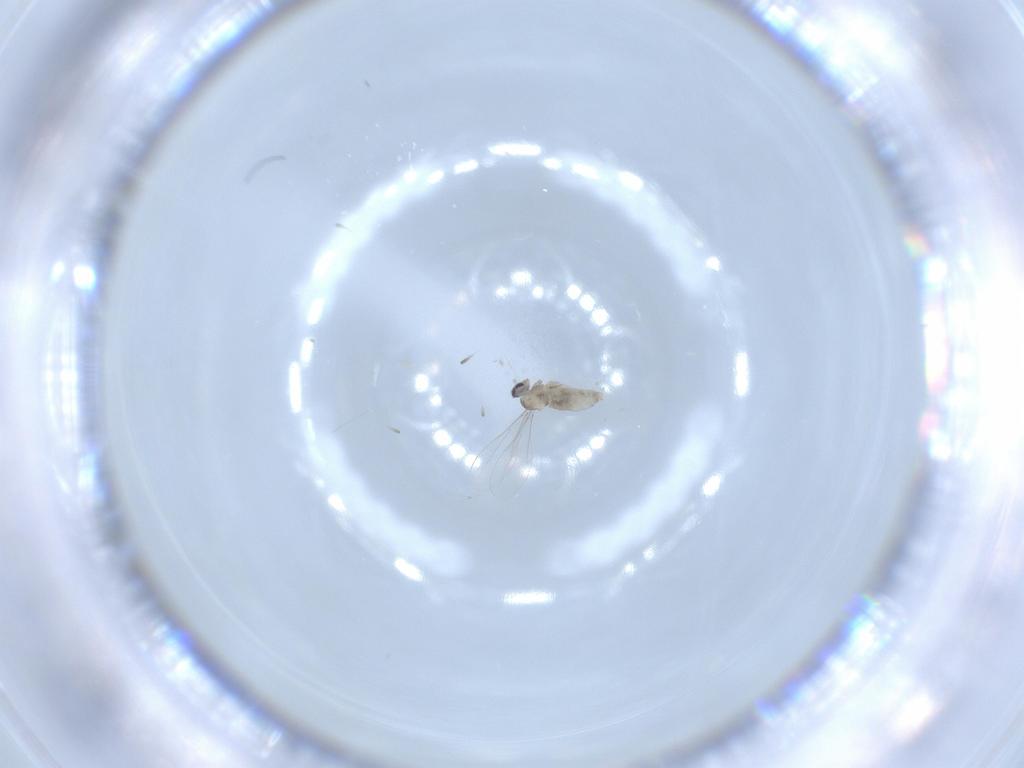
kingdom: Animalia
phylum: Arthropoda
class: Insecta
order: Diptera
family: Cecidomyiidae
